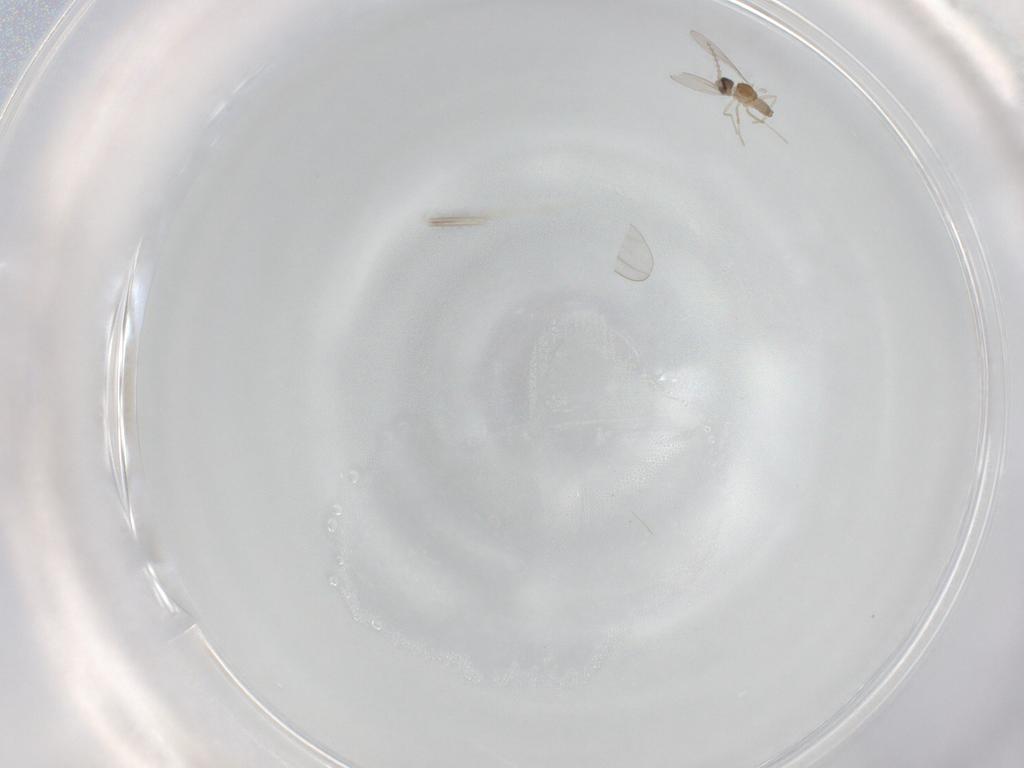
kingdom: Animalia
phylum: Arthropoda
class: Insecta
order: Diptera
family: Cecidomyiidae
